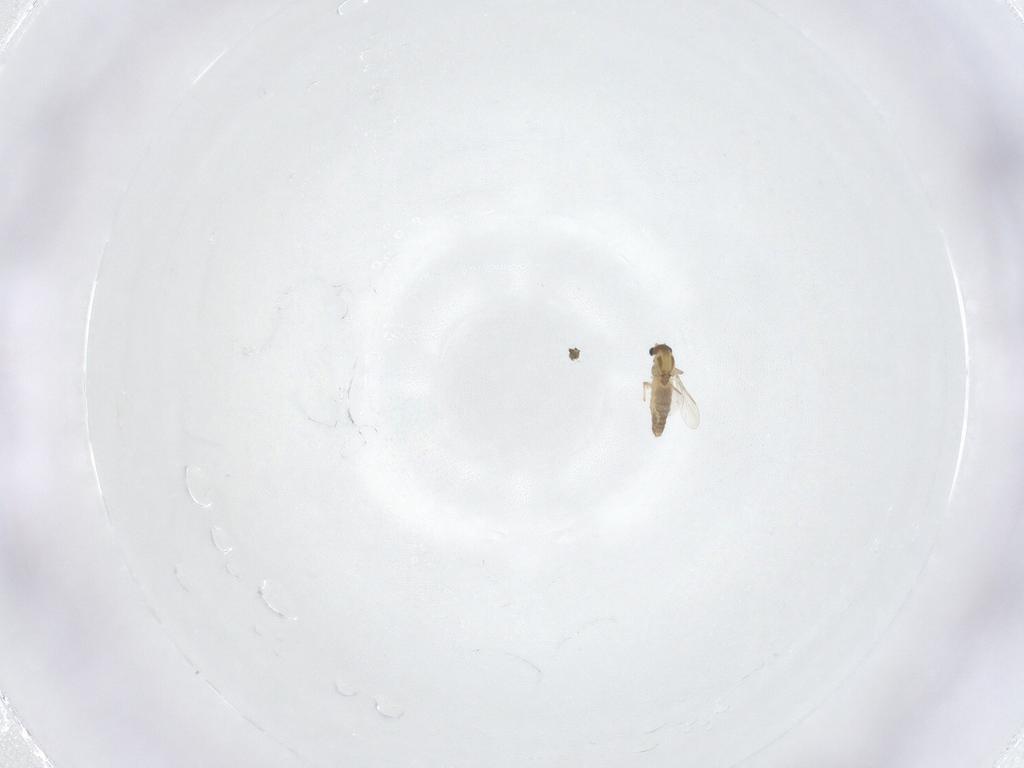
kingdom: Animalia
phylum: Arthropoda
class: Insecta
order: Diptera
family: Chironomidae
